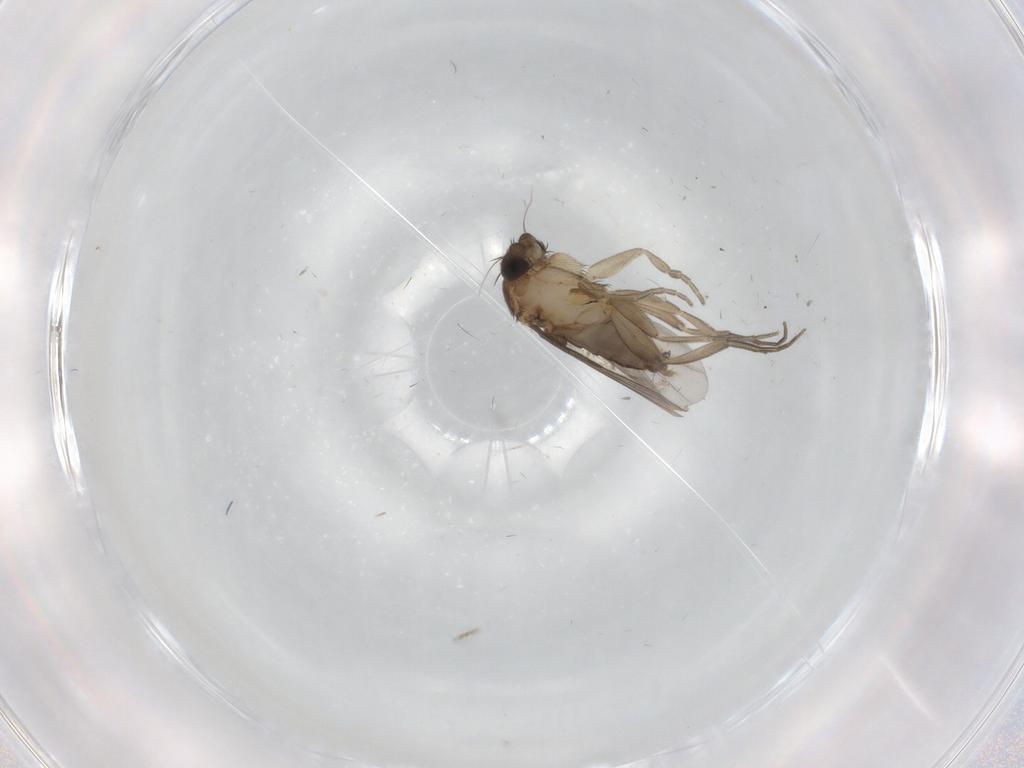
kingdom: Animalia
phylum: Arthropoda
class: Insecta
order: Diptera
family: Phoridae
